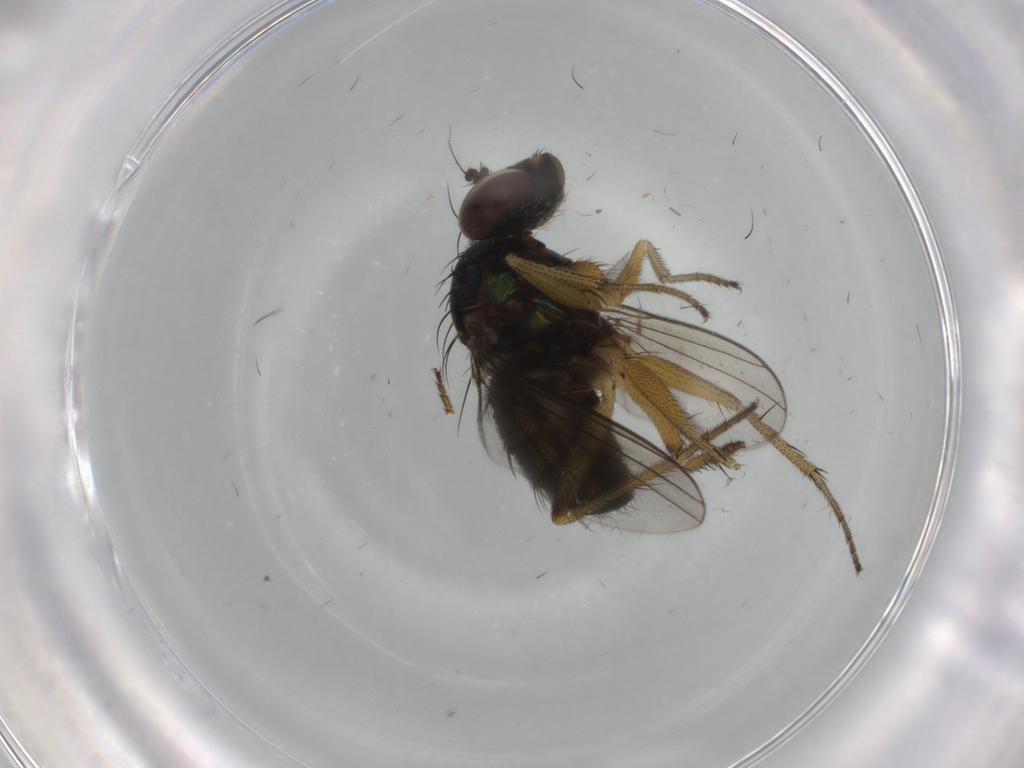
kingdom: Animalia
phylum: Arthropoda
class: Insecta
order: Diptera
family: Dolichopodidae
